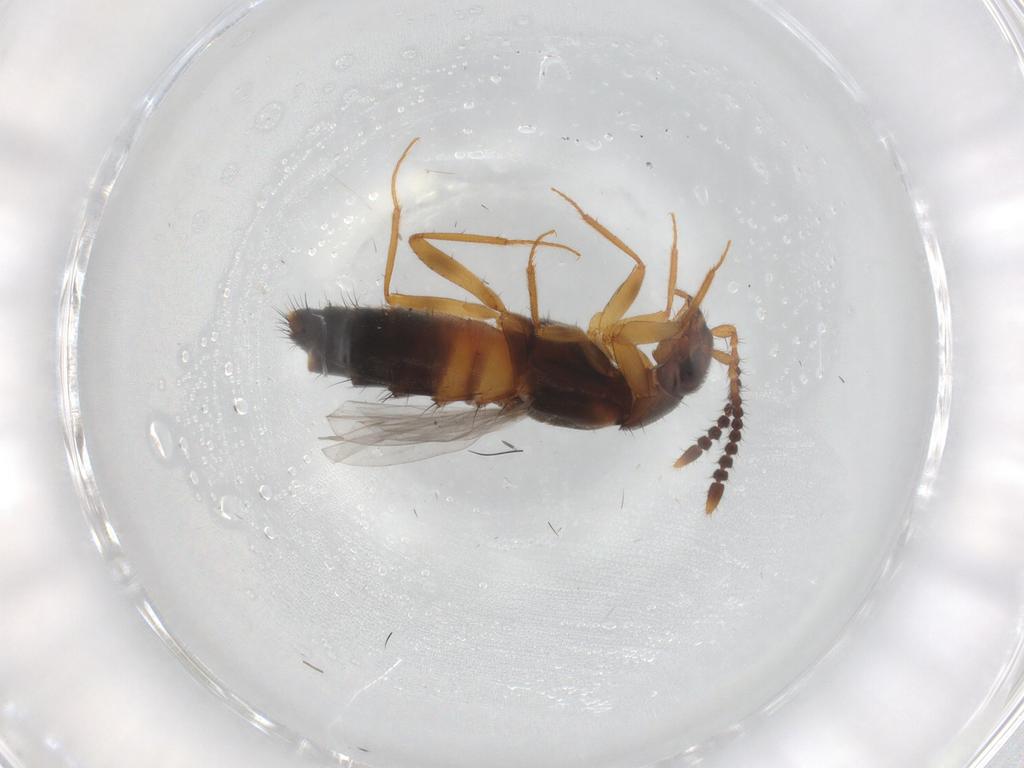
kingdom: Animalia
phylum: Arthropoda
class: Insecta
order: Coleoptera
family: Staphylinidae
